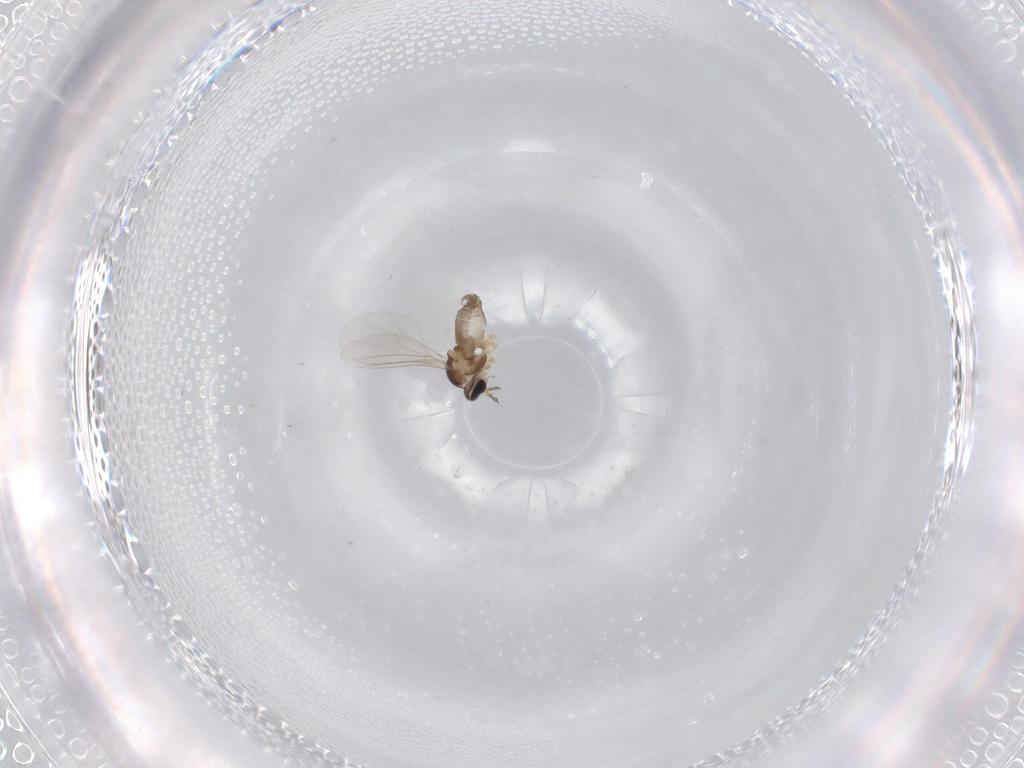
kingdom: Animalia
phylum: Arthropoda
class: Insecta
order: Diptera
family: Cecidomyiidae
